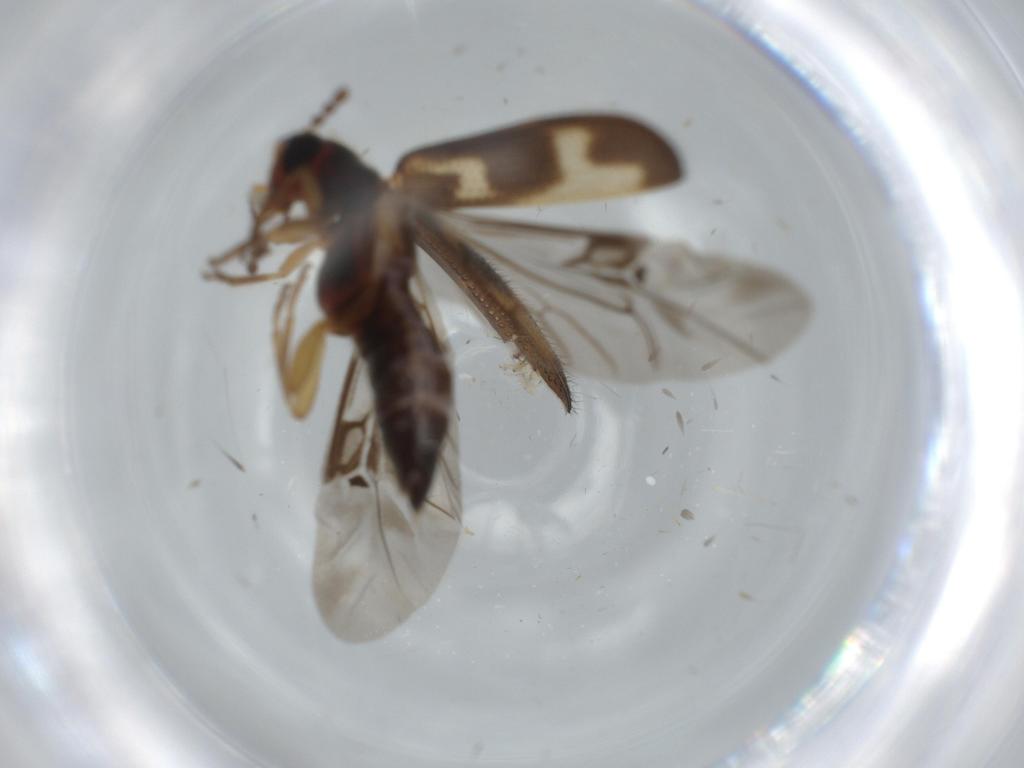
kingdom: Animalia
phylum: Arthropoda
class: Insecta
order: Coleoptera
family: Cleridae
